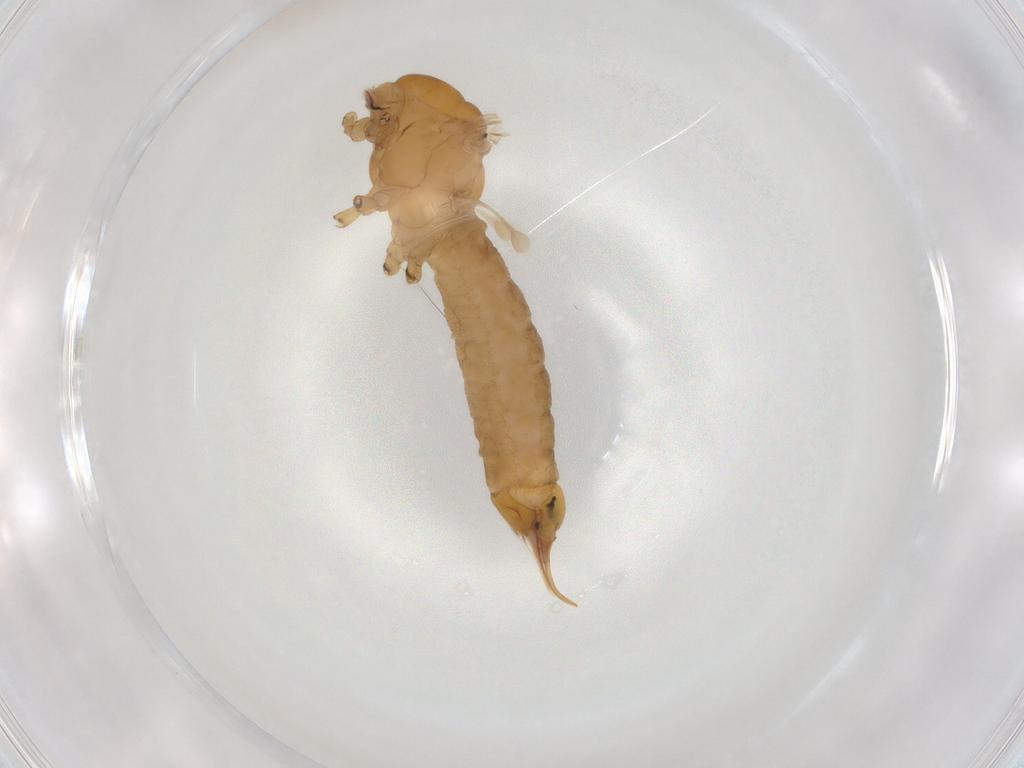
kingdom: Animalia
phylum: Arthropoda
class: Insecta
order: Diptera
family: Limoniidae
